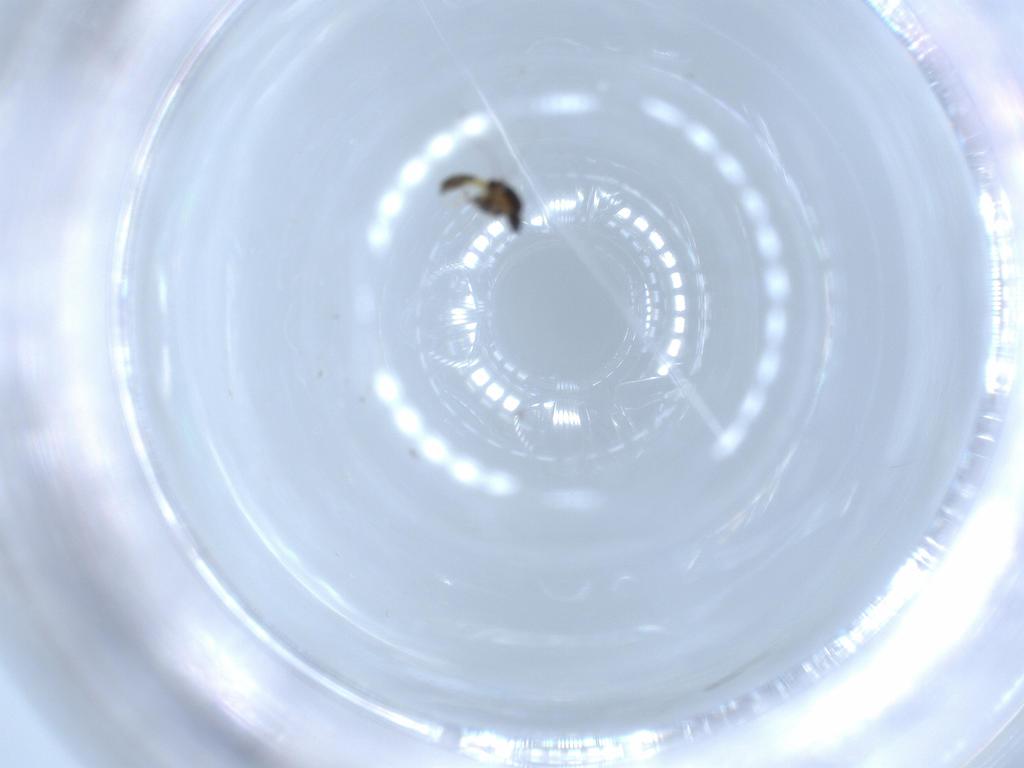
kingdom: Animalia
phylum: Arthropoda
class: Insecta
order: Diptera
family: Chironomidae
